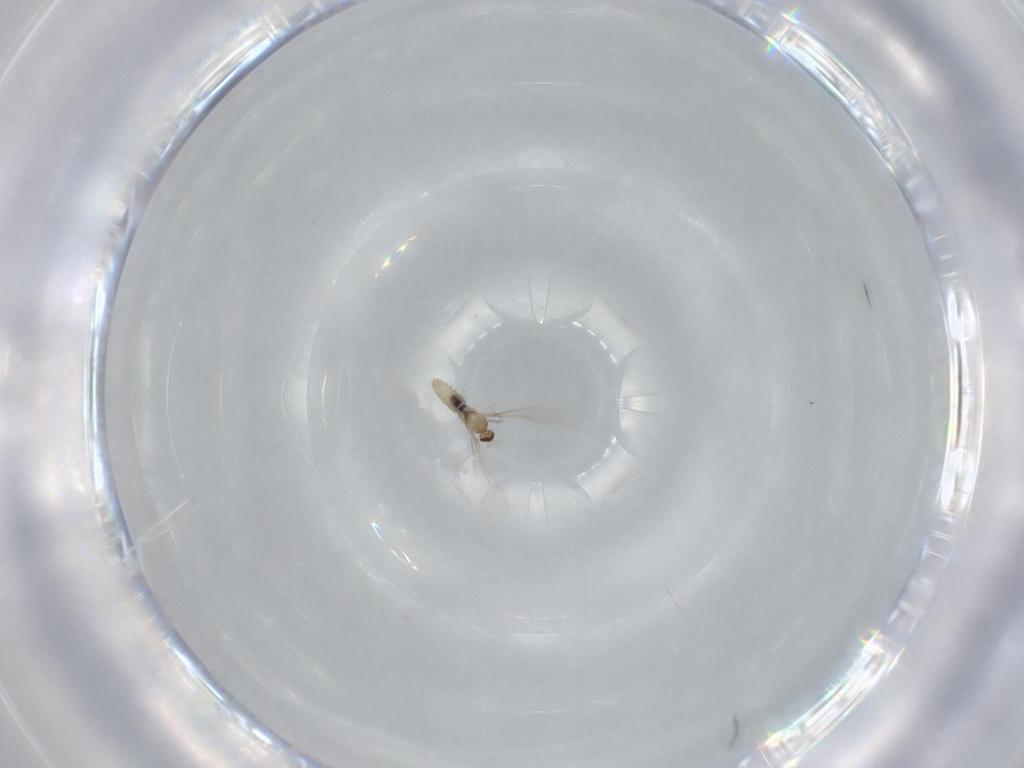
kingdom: Animalia
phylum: Arthropoda
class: Insecta
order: Diptera
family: Cecidomyiidae
